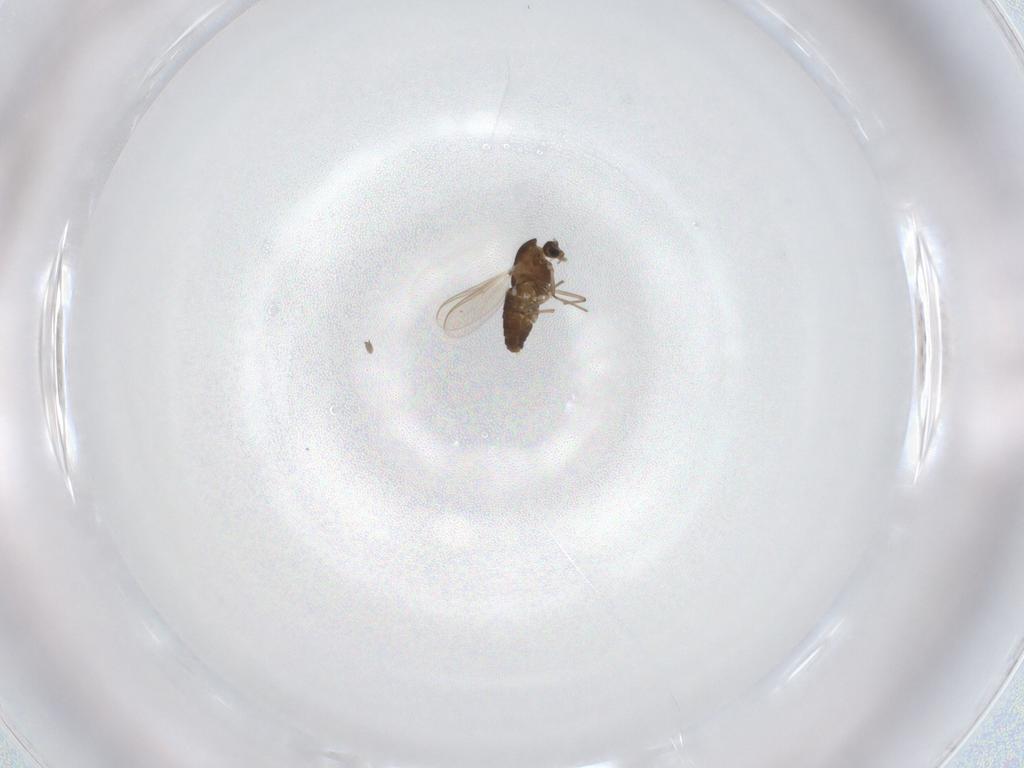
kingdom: Animalia
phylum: Arthropoda
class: Insecta
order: Diptera
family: Chironomidae
